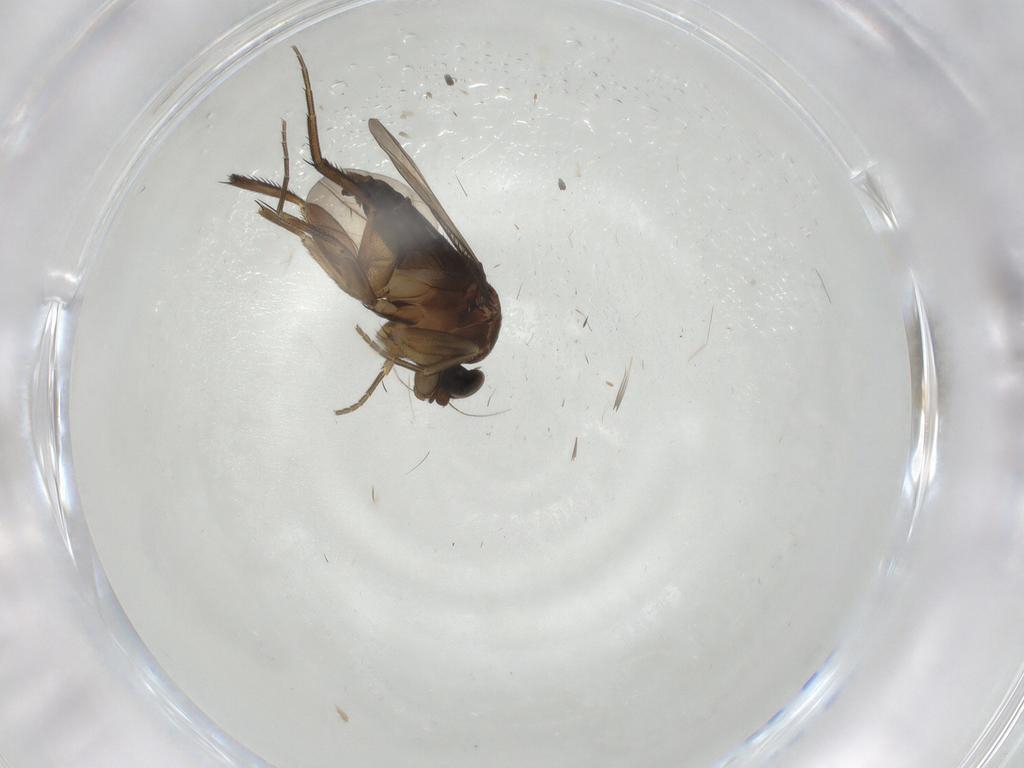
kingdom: Animalia
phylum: Arthropoda
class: Insecta
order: Diptera
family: Phoridae
